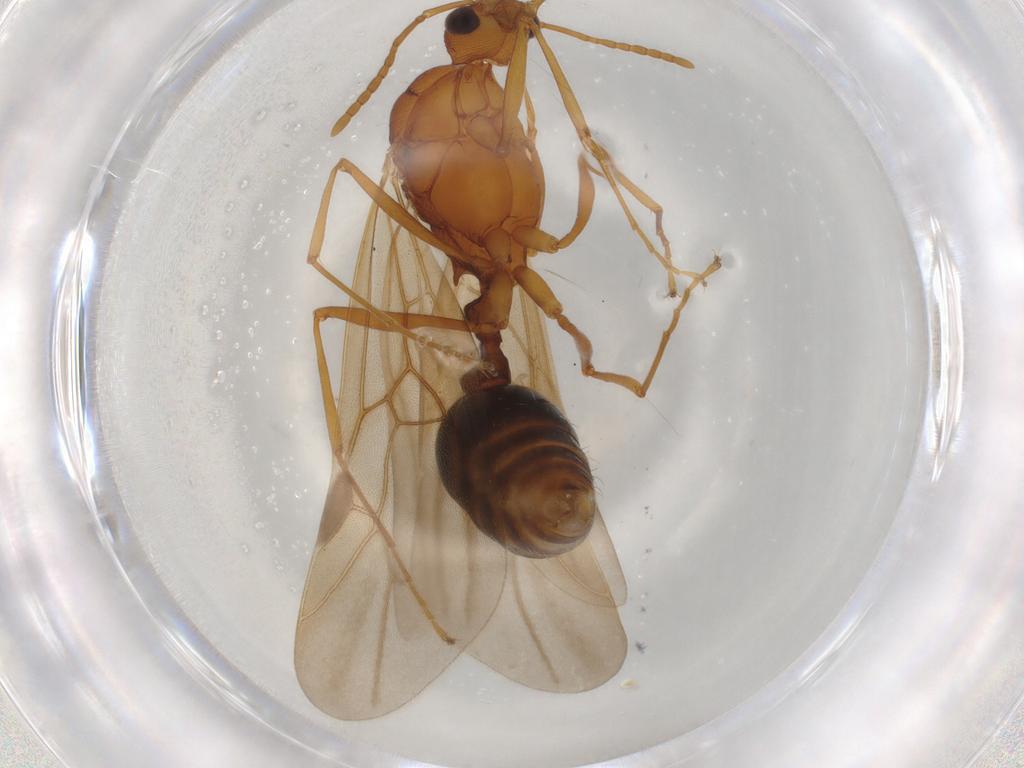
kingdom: Animalia
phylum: Arthropoda
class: Insecta
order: Hymenoptera
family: Formicidae
